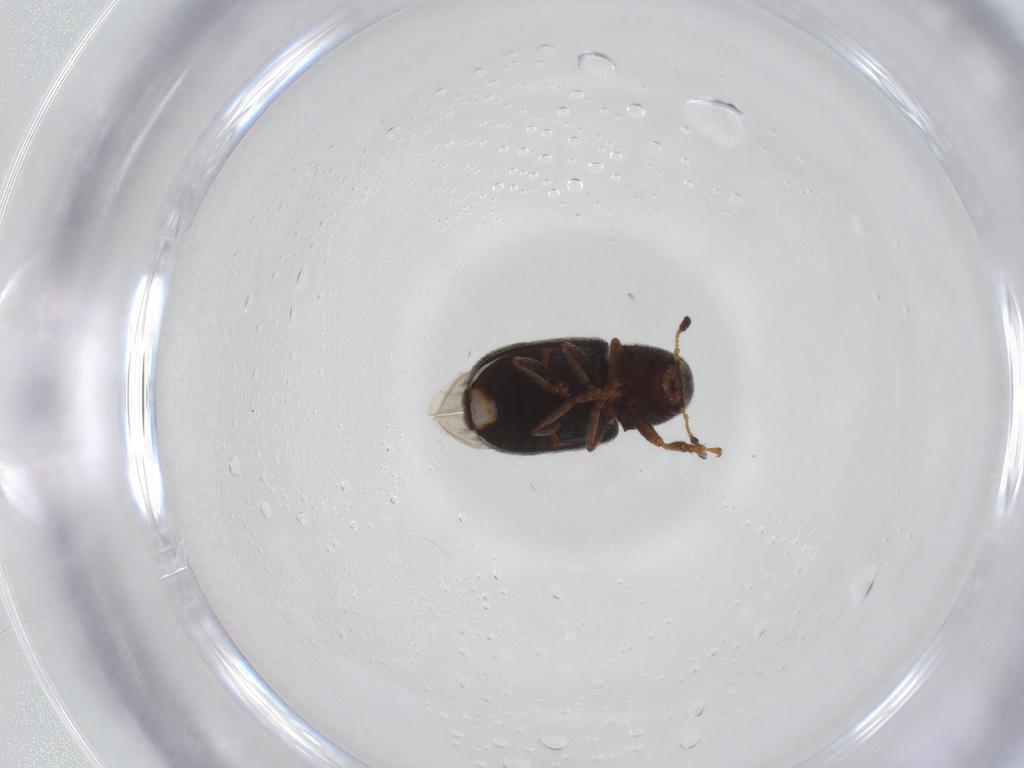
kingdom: Animalia
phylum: Arthropoda
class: Insecta
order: Coleoptera
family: Anthribidae
